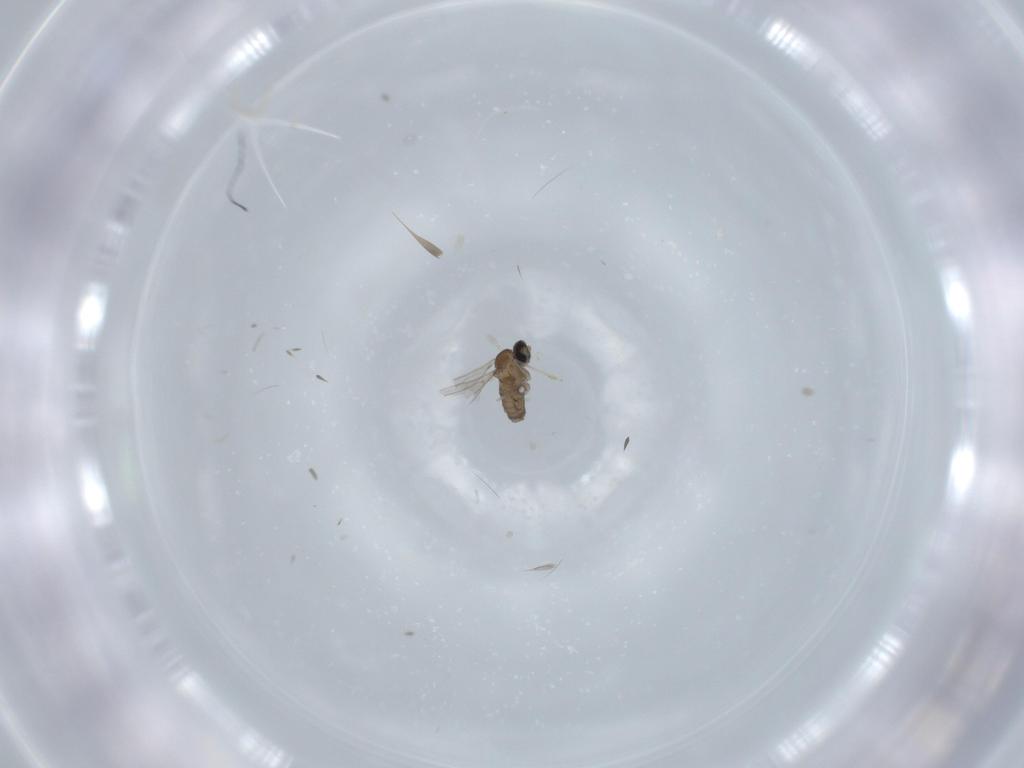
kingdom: Animalia
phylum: Arthropoda
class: Insecta
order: Diptera
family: Cecidomyiidae
